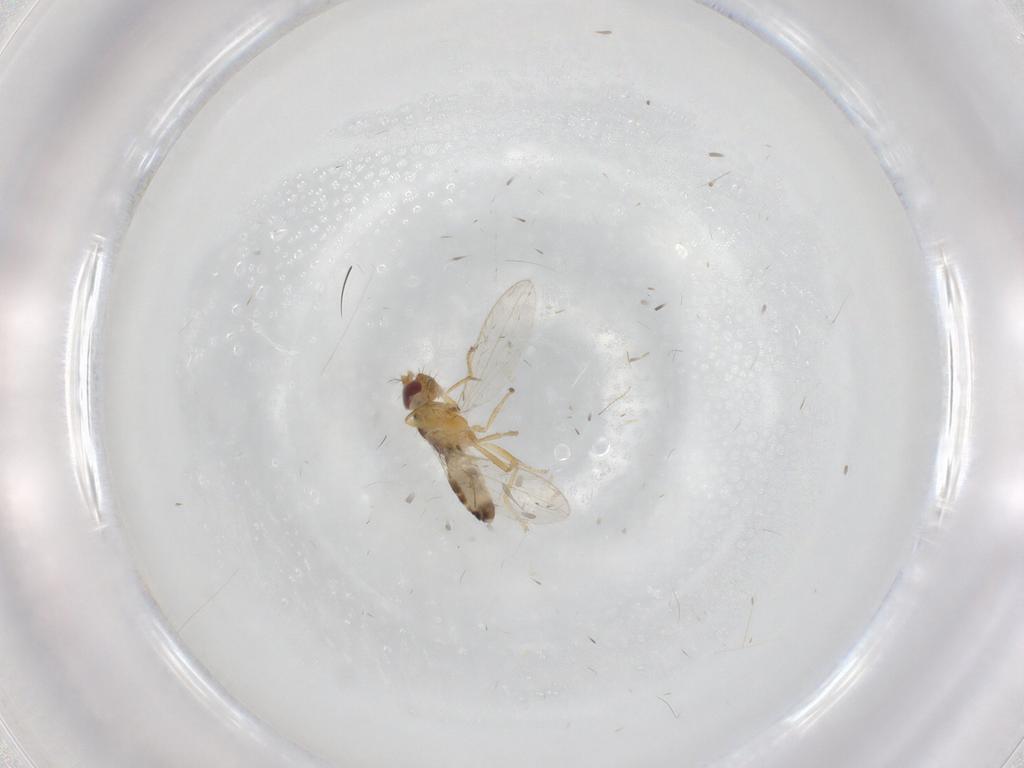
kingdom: Animalia
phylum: Arthropoda
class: Insecta
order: Diptera
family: Periscelididae
